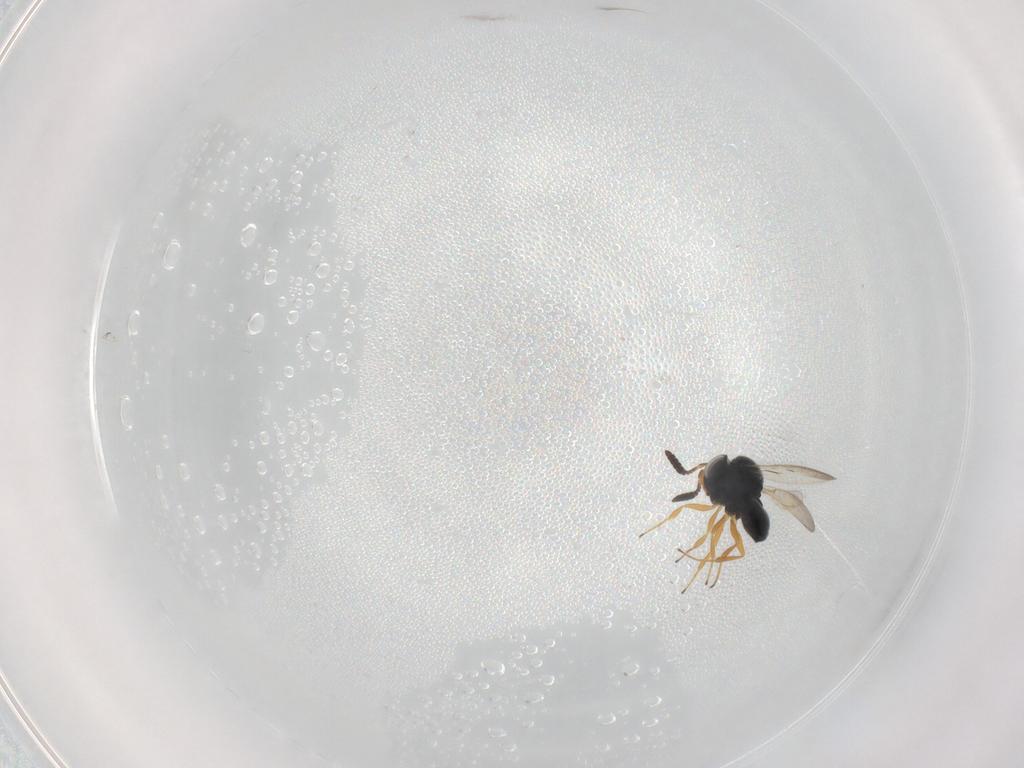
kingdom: Animalia
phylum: Arthropoda
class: Insecta
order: Hymenoptera
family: Scelionidae
